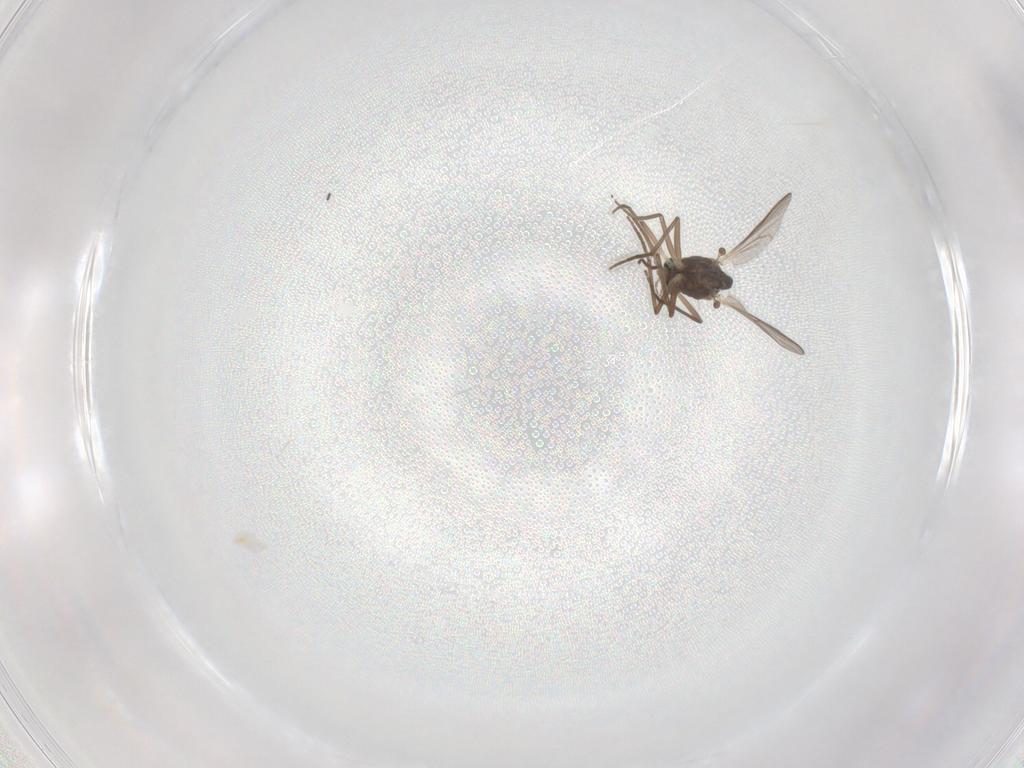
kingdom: Animalia
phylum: Arthropoda
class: Insecta
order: Diptera
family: Chironomidae
